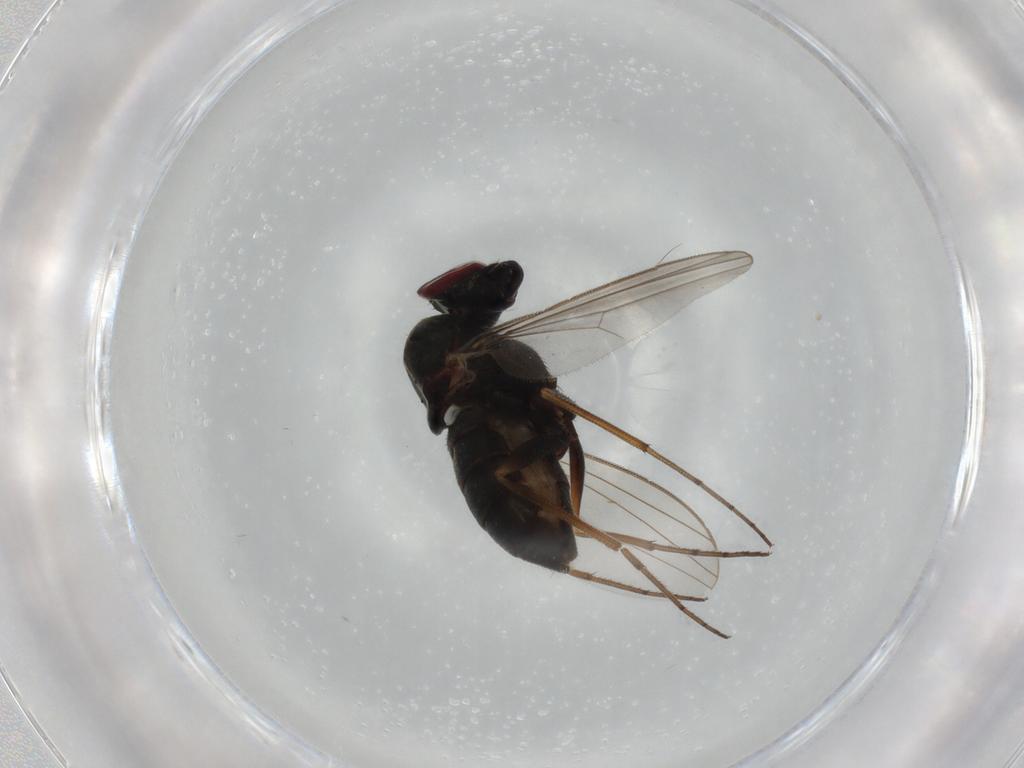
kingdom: Animalia
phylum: Arthropoda
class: Insecta
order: Diptera
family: Dolichopodidae
